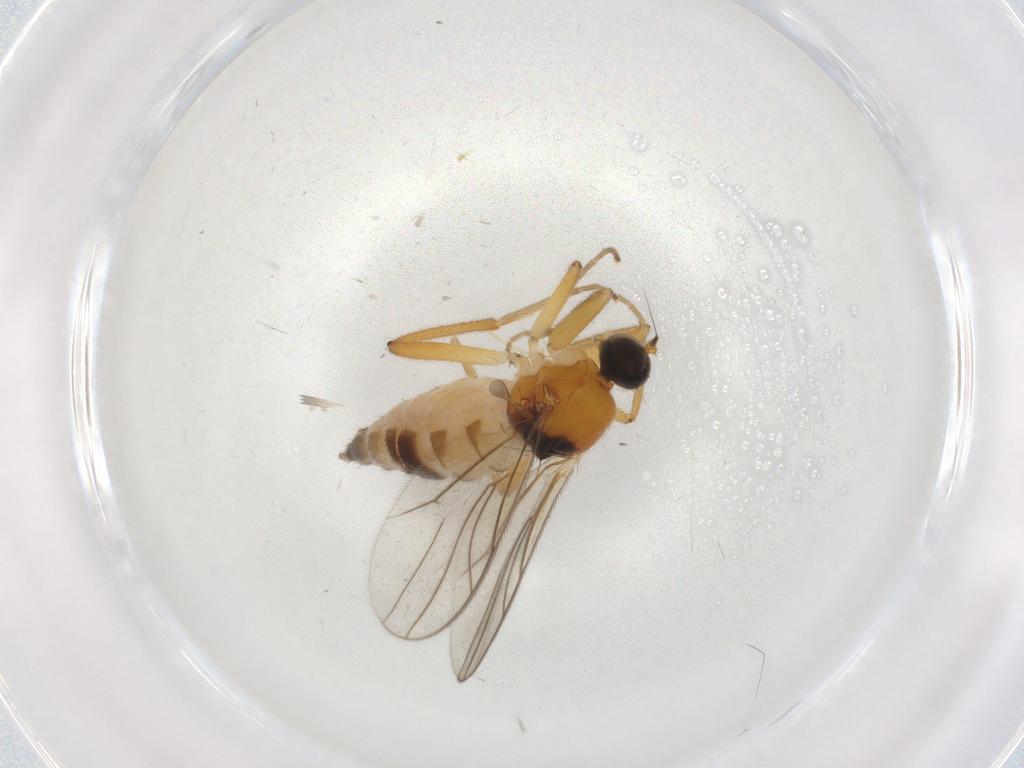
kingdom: Animalia
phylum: Arthropoda
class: Insecta
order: Diptera
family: Hybotidae
